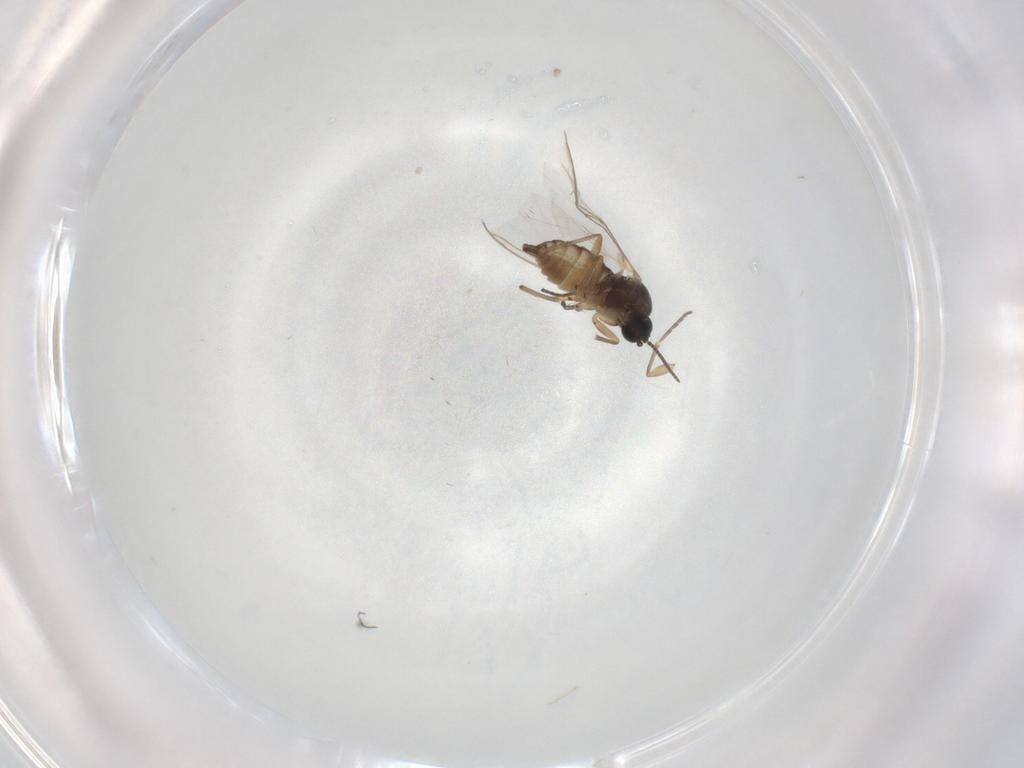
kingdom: Animalia
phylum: Arthropoda
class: Insecta
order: Diptera
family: Sciaridae
